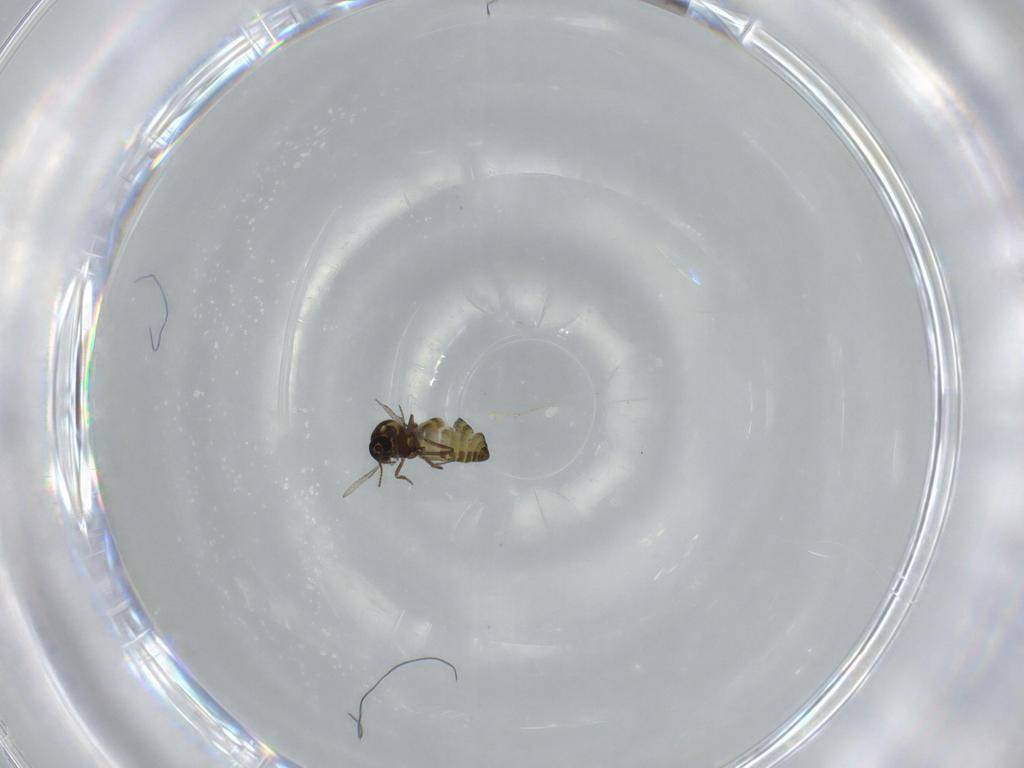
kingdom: Animalia
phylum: Arthropoda
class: Insecta
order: Diptera
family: Ceratopogonidae
